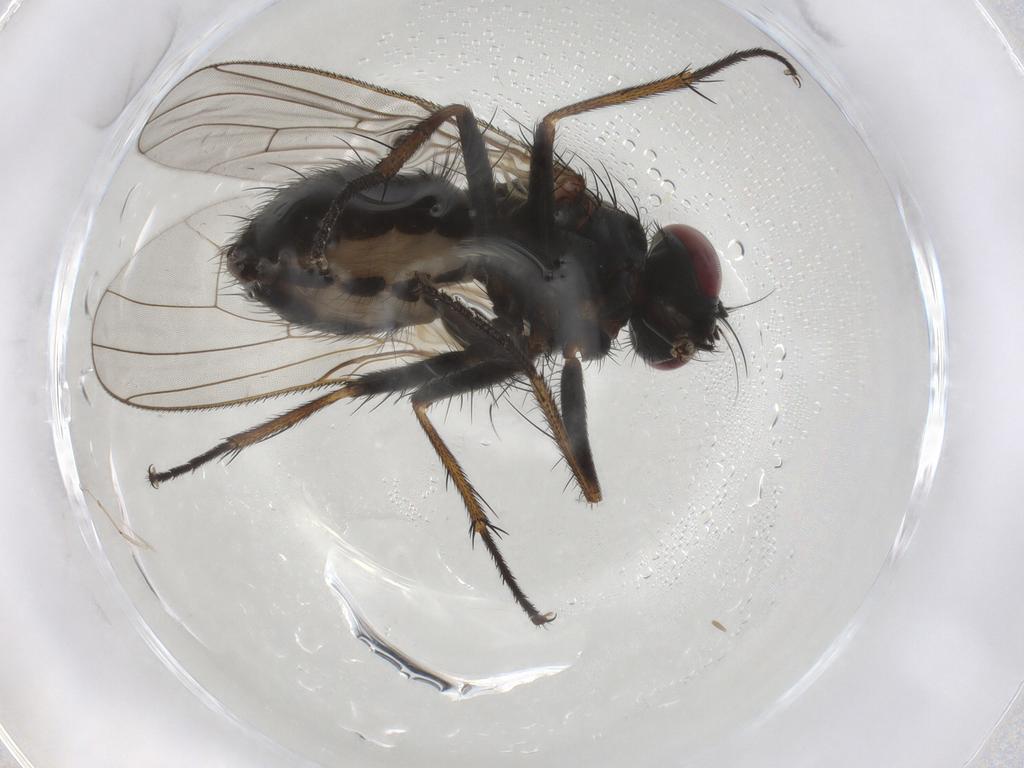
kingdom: Animalia
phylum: Arthropoda
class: Insecta
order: Diptera
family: Muscidae
